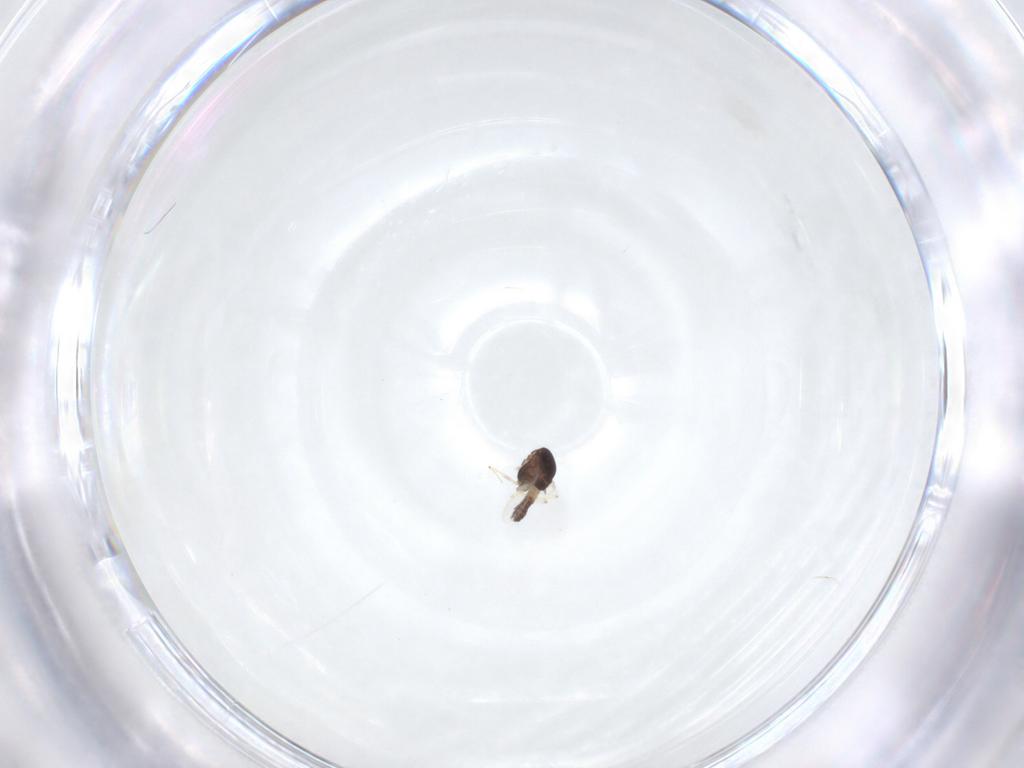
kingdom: Animalia
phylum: Arthropoda
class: Insecta
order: Diptera
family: Chironomidae
